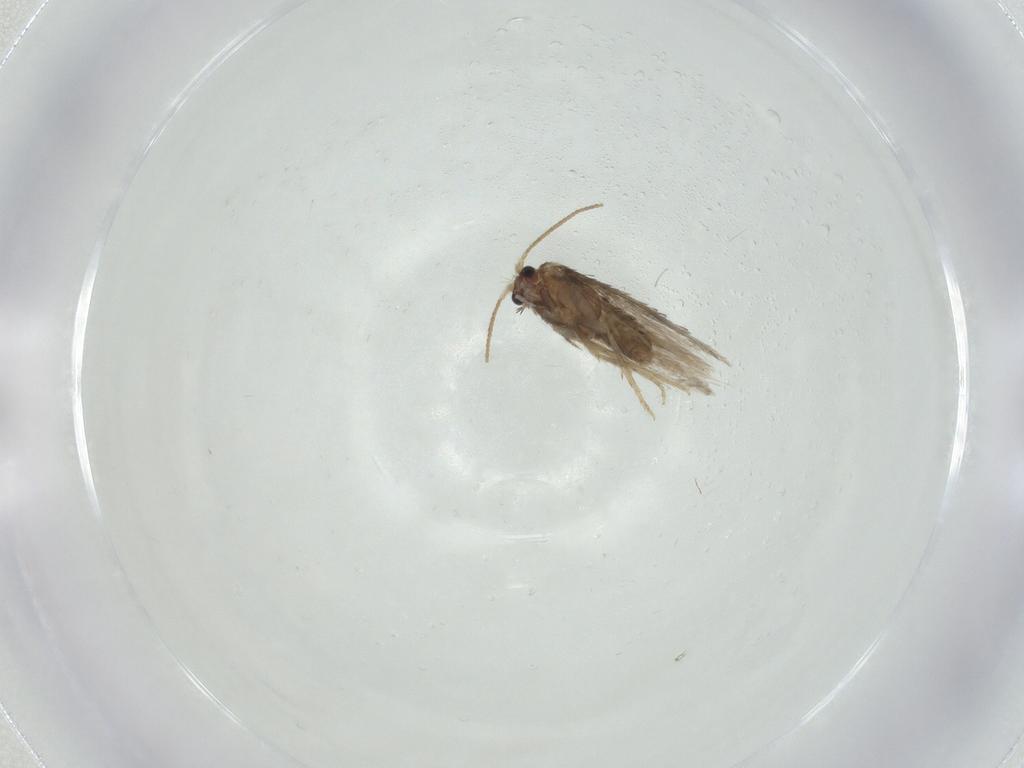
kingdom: Animalia
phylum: Arthropoda
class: Insecta
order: Lepidoptera
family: Nepticulidae
